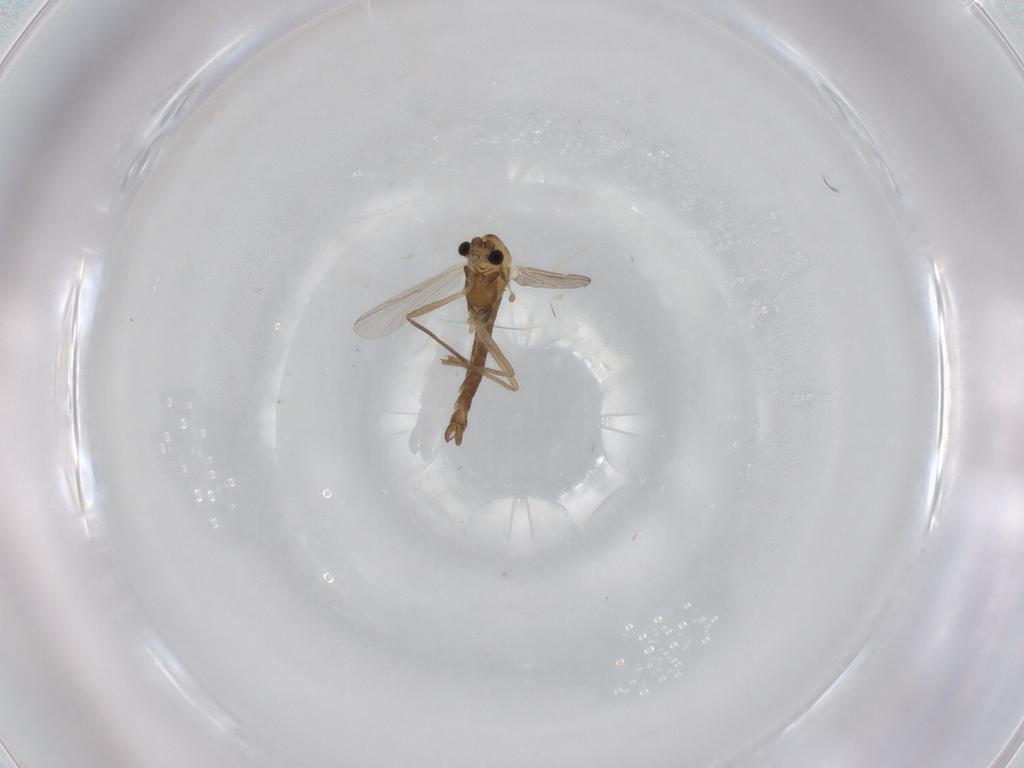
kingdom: Animalia
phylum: Arthropoda
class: Insecta
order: Diptera
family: Chironomidae
